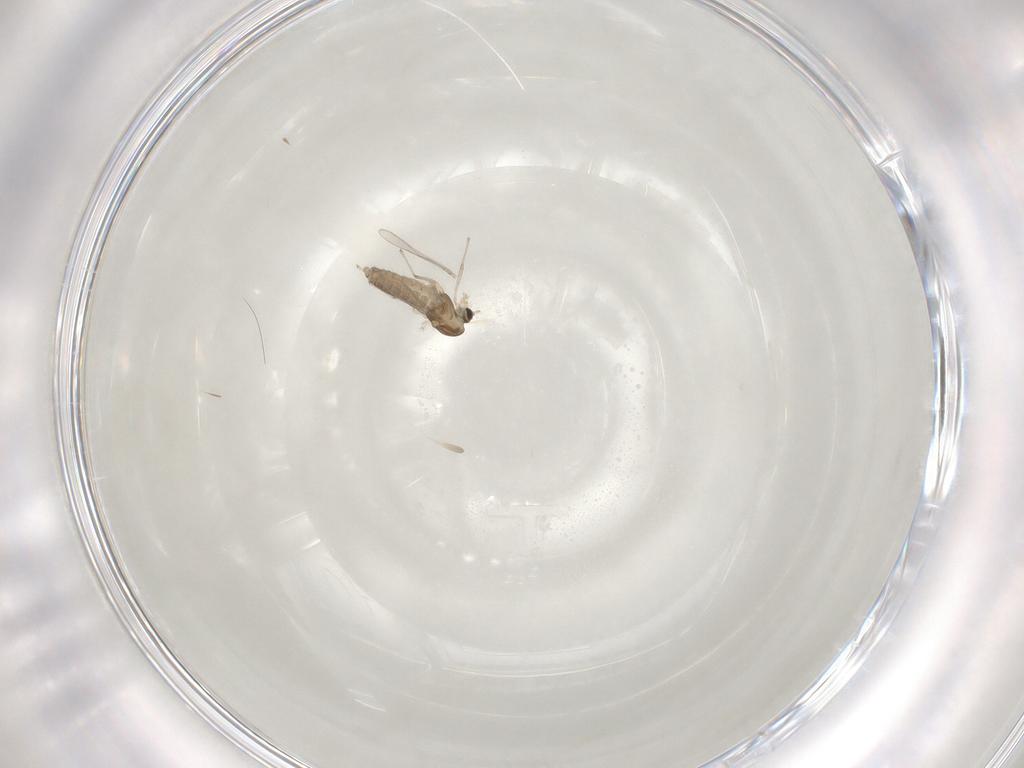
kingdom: Animalia
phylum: Arthropoda
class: Insecta
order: Diptera
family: Chironomidae
